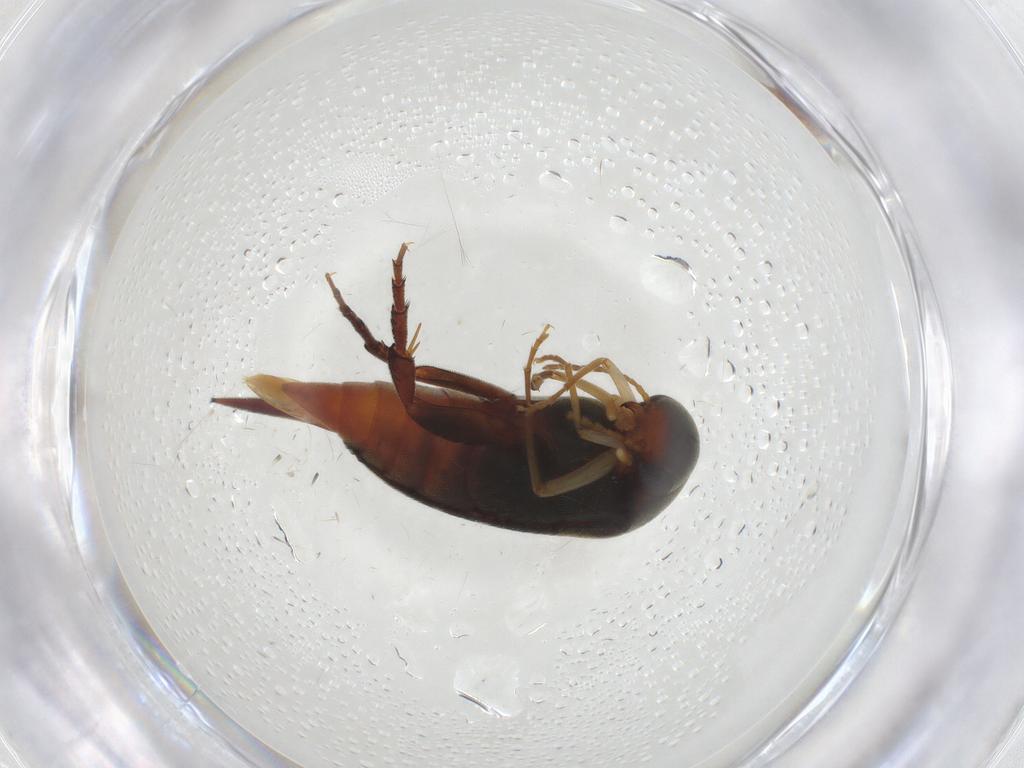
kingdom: Animalia
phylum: Arthropoda
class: Insecta
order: Coleoptera
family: Mordellidae
